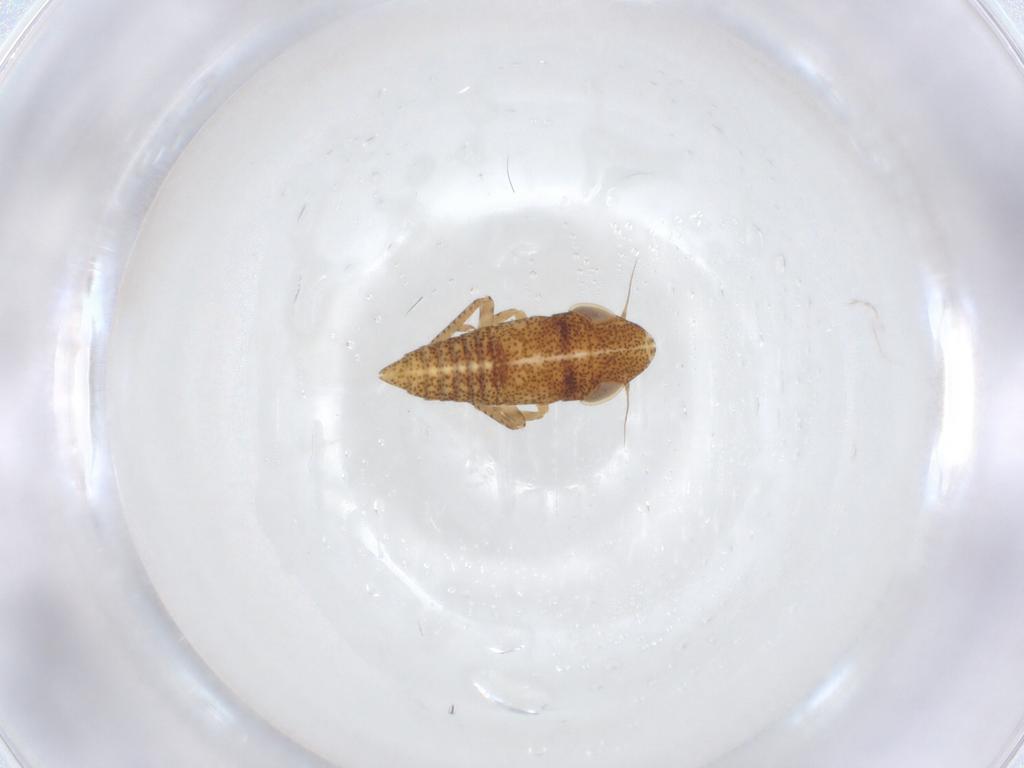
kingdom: Animalia
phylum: Arthropoda
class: Insecta
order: Hemiptera
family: Cicadellidae
